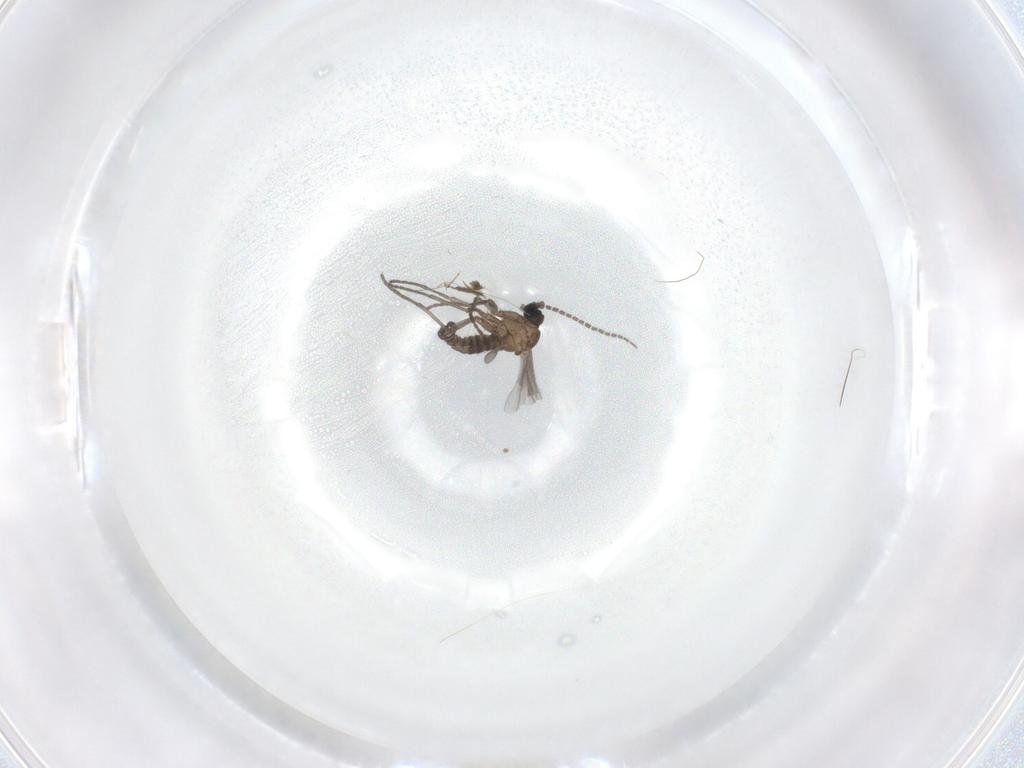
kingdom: Animalia
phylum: Arthropoda
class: Insecta
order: Diptera
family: Sciaridae
